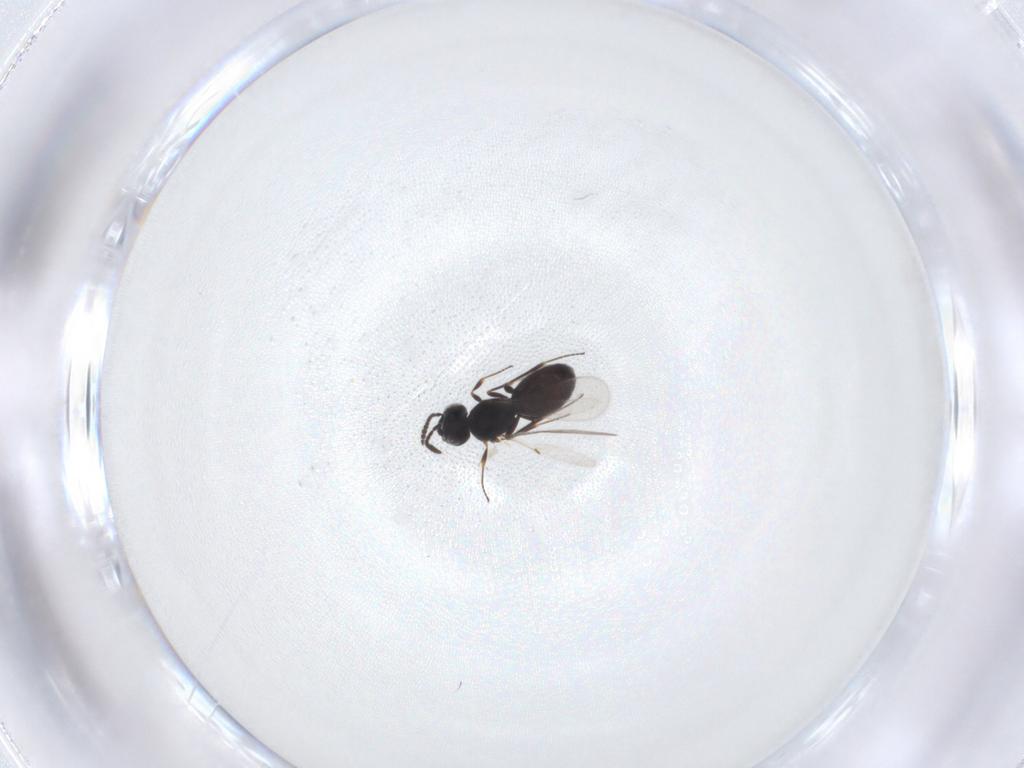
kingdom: Animalia
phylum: Arthropoda
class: Insecta
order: Hymenoptera
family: Scelionidae
